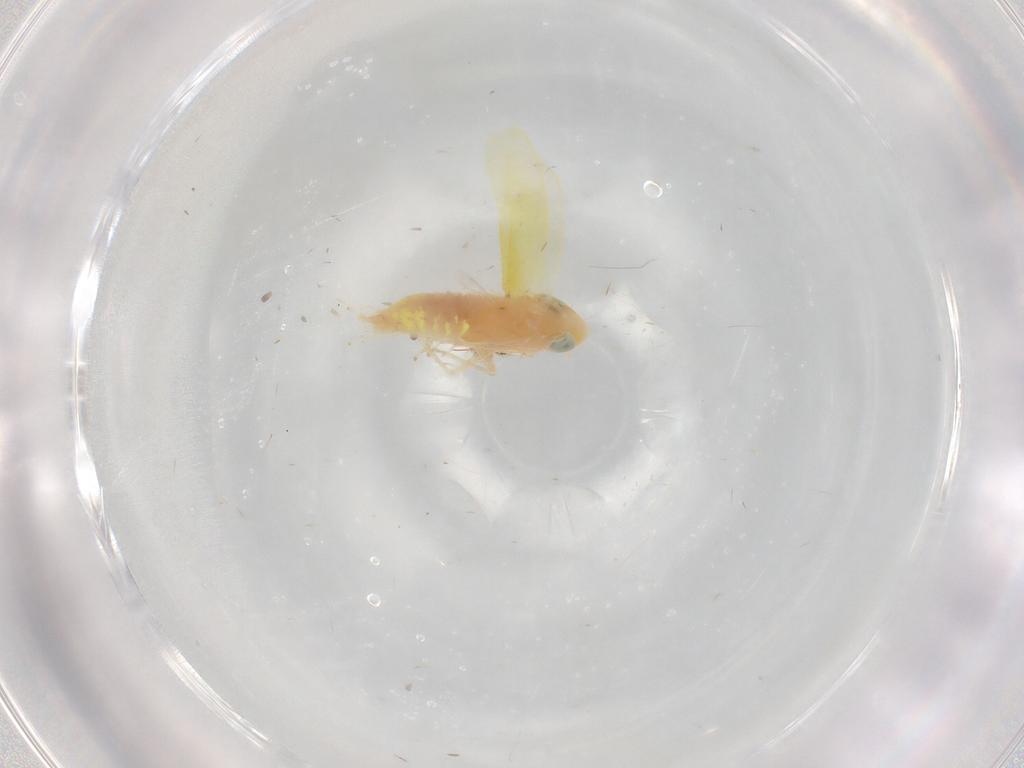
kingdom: Animalia
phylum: Arthropoda
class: Insecta
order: Hemiptera
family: Cicadellidae
